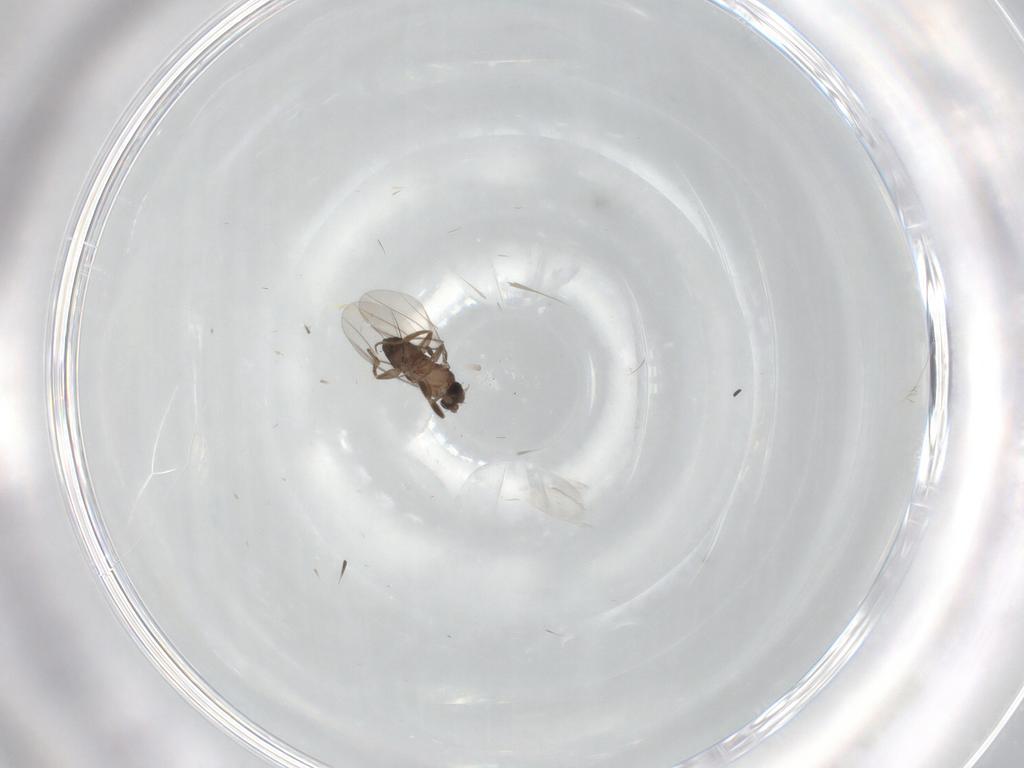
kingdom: Animalia
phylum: Arthropoda
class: Insecta
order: Diptera
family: Phoridae
